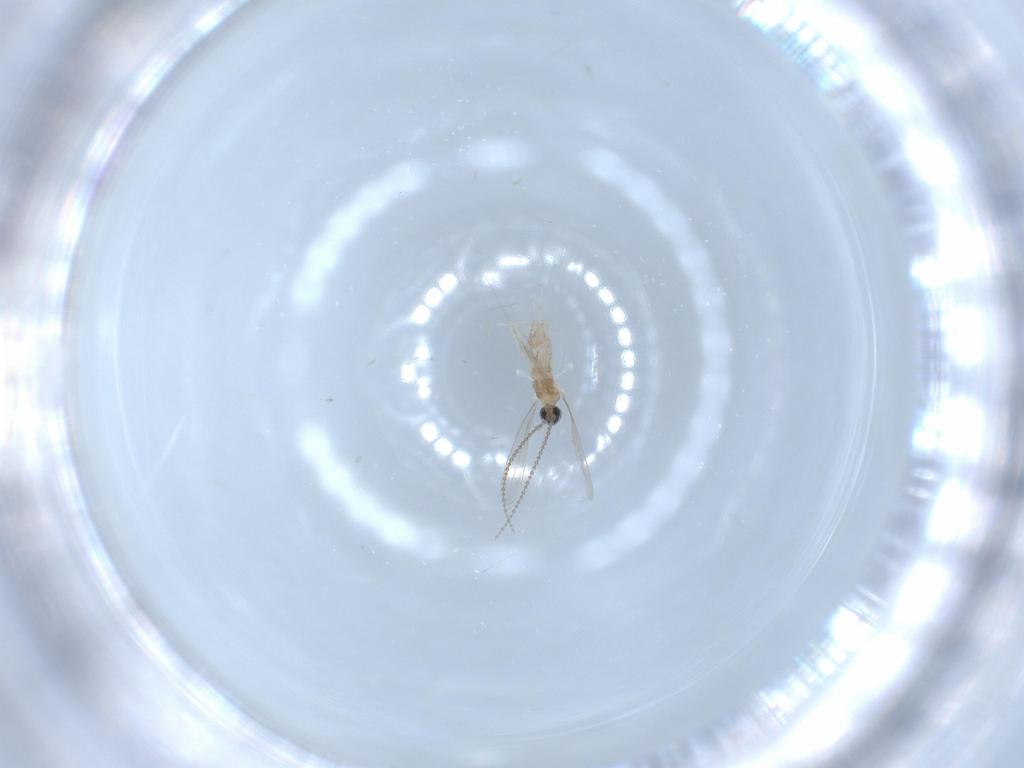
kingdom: Animalia
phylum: Arthropoda
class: Insecta
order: Diptera
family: Cecidomyiidae
